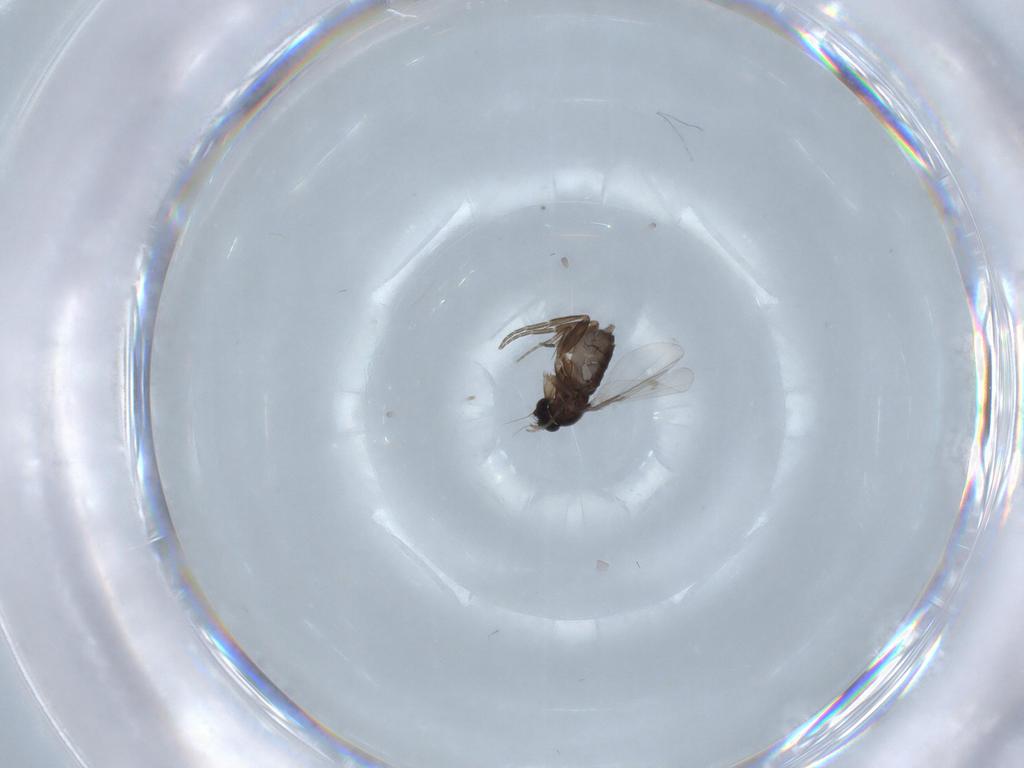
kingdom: Animalia
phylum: Arthropoda
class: Insecta
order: Diptera
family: Phoridae
